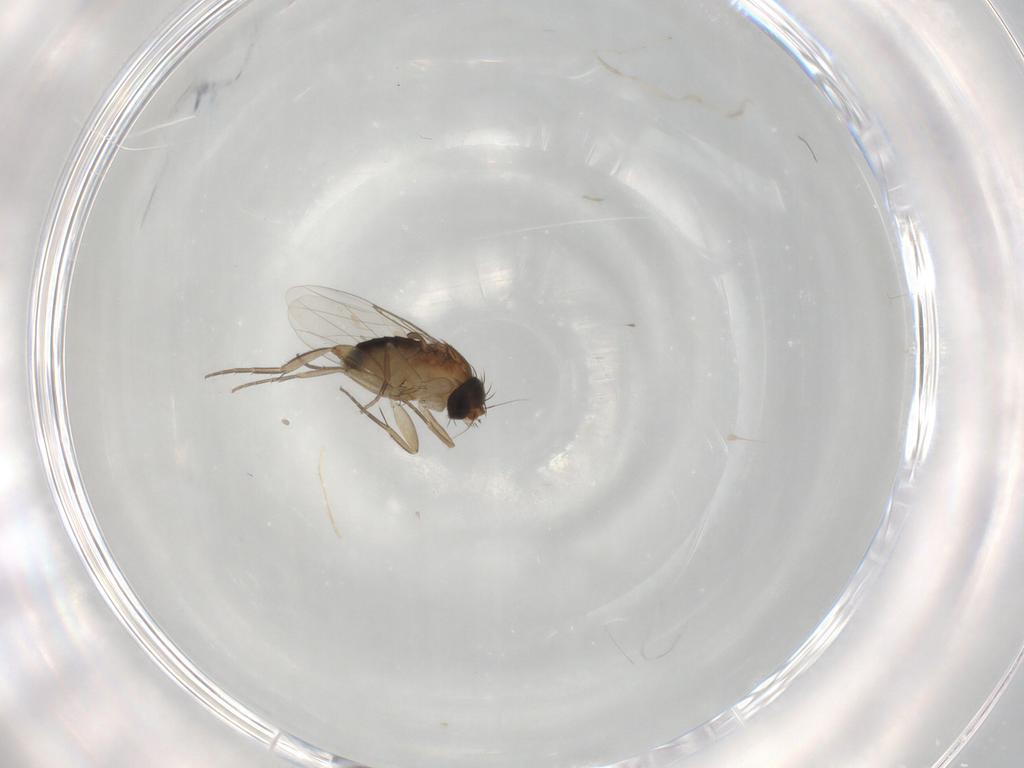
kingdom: Animalia
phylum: Arthropoda
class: Insecta
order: Diptera
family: Phoridae
